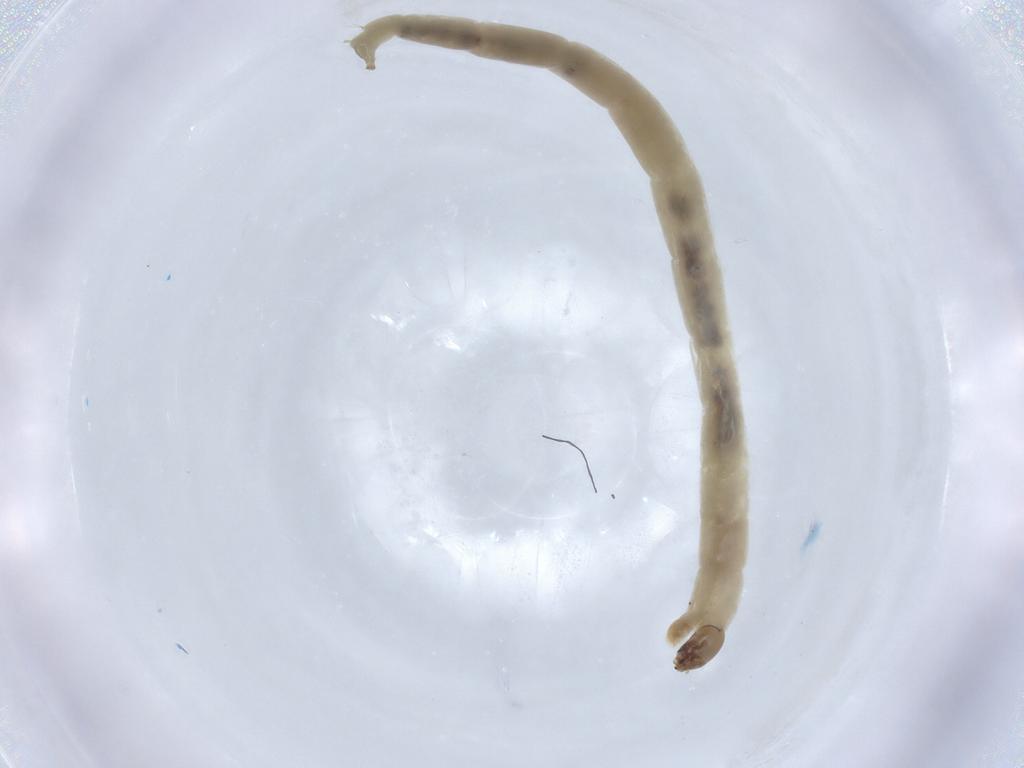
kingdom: Animalia
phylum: Arthropoda
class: Insecta
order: Diptera
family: Chironomidae
